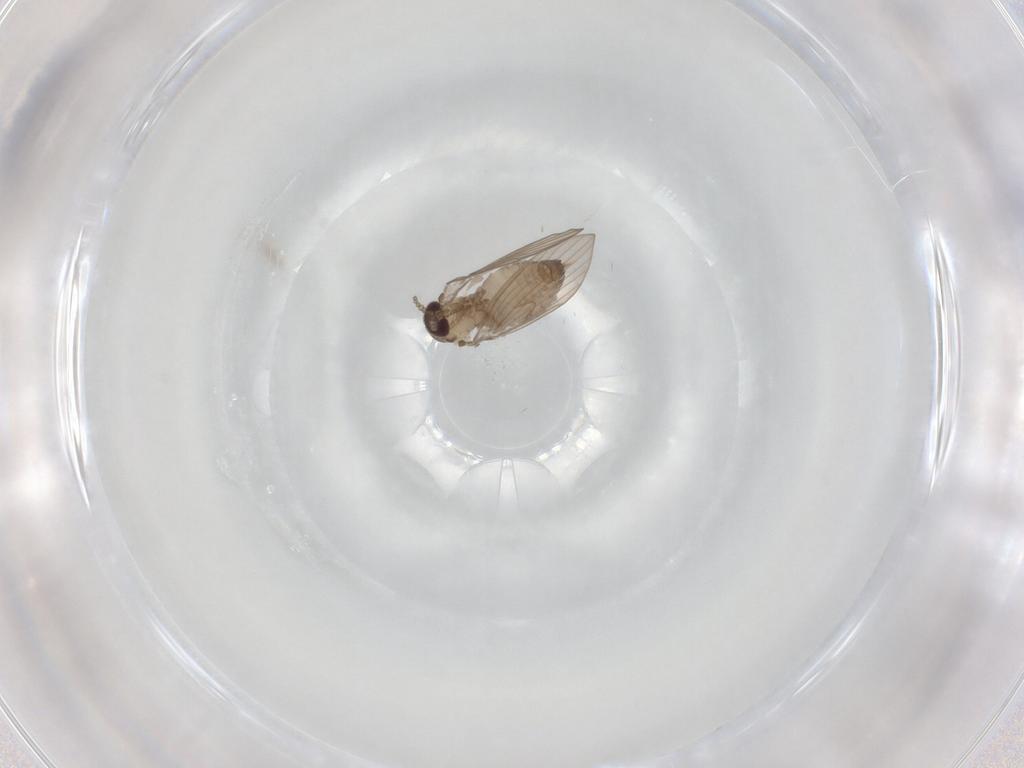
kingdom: Animalia
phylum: Arthropoda
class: Insecta
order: Diptera
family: Psychodidae
